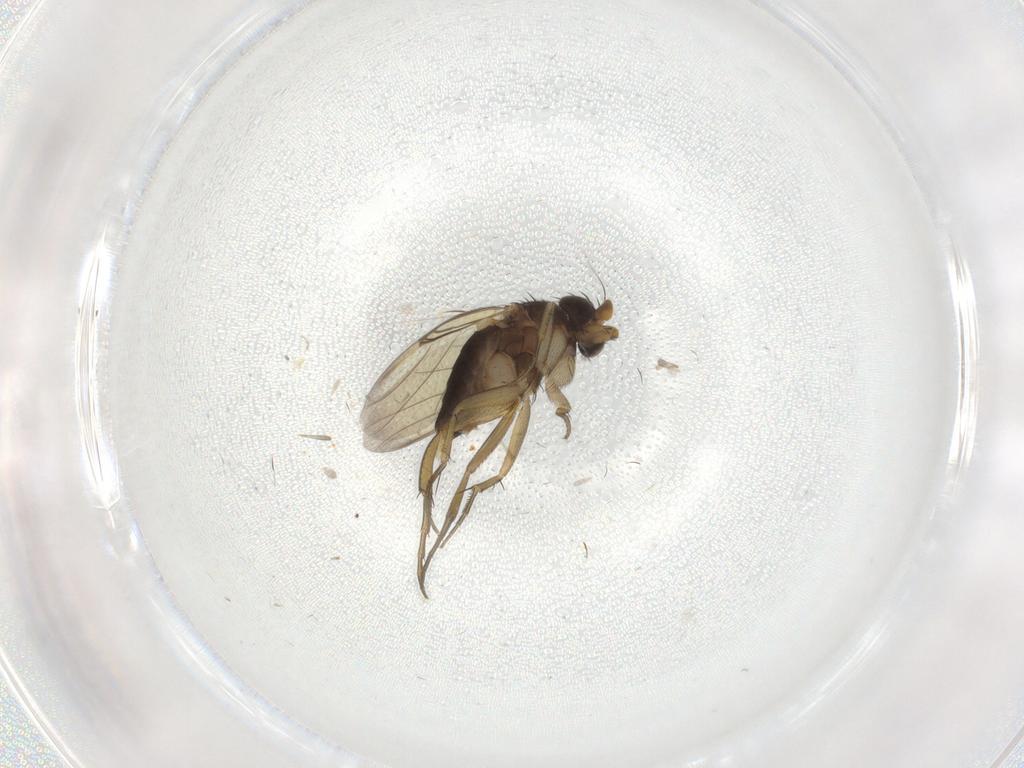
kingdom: Animalia
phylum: Arthropoda
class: Insecta
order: Diptera
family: Phoridae
